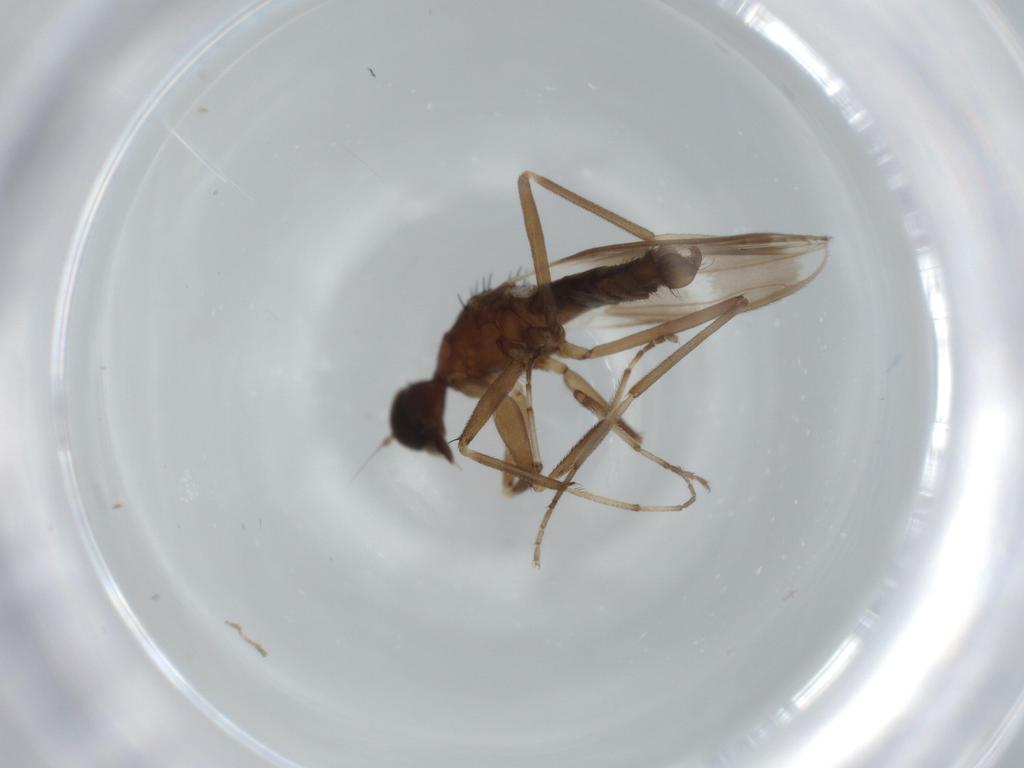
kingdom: Animalia
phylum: Arthropoda
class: Insecta
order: Diptera
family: Hybotidae
